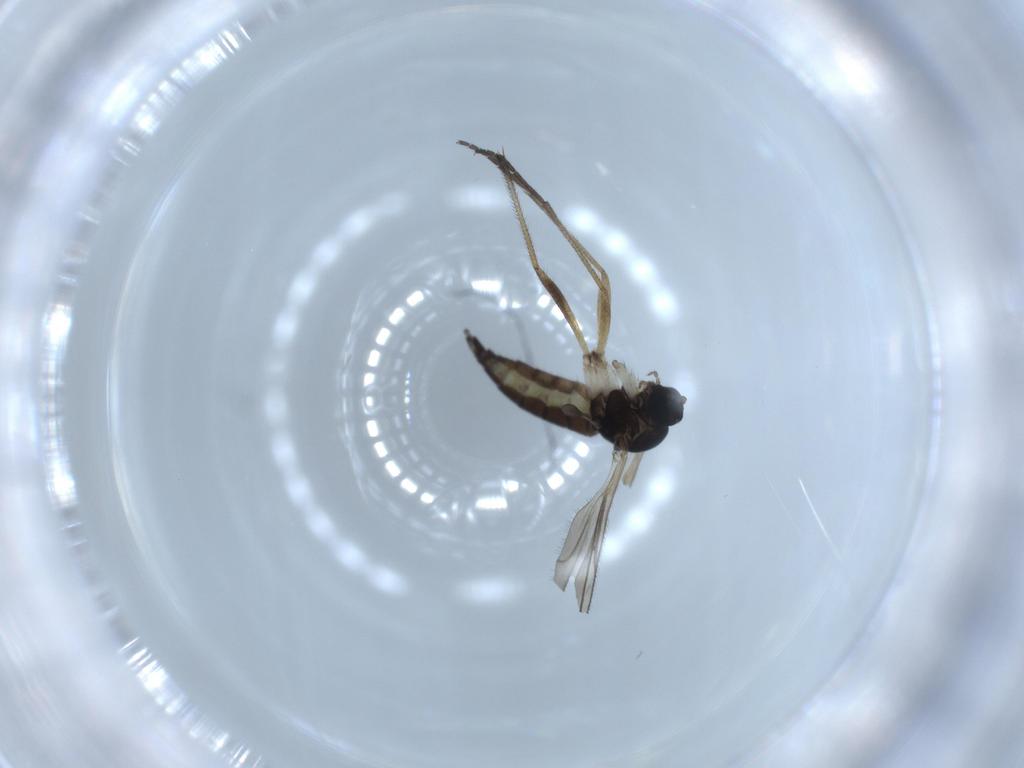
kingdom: Animalia
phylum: Arthropoda
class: Insecta
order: Diptera
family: Sciaridae
